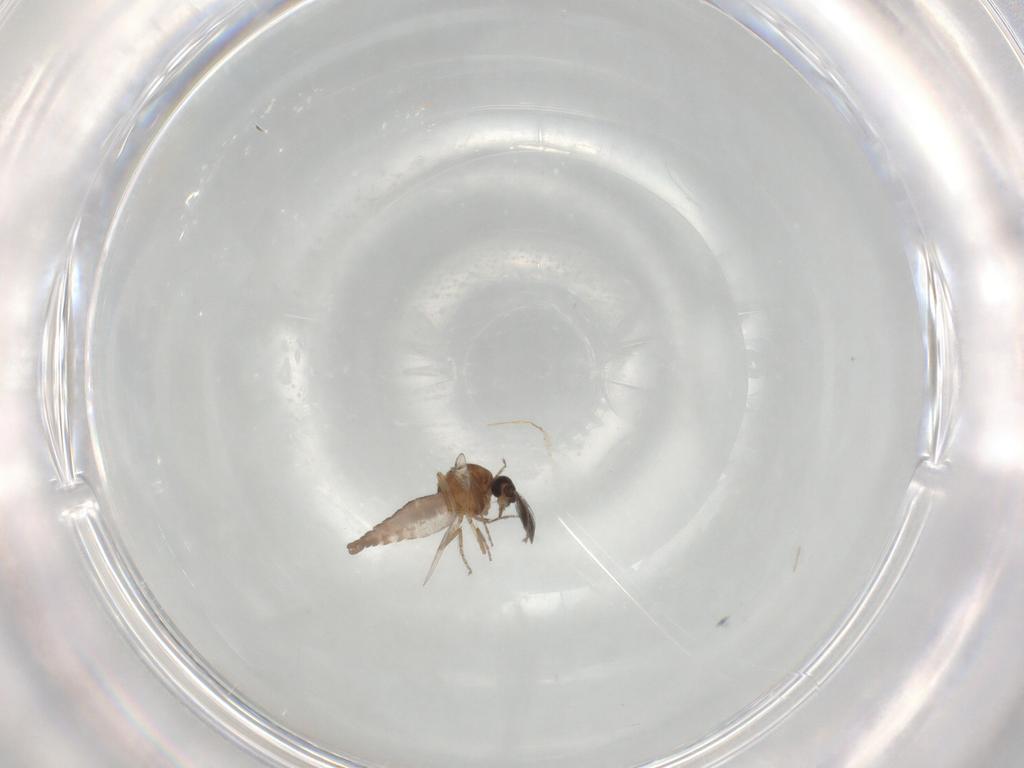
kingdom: Animalia
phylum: Arthropoda
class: Insecta
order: Diptera
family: Ceratopogonidae
